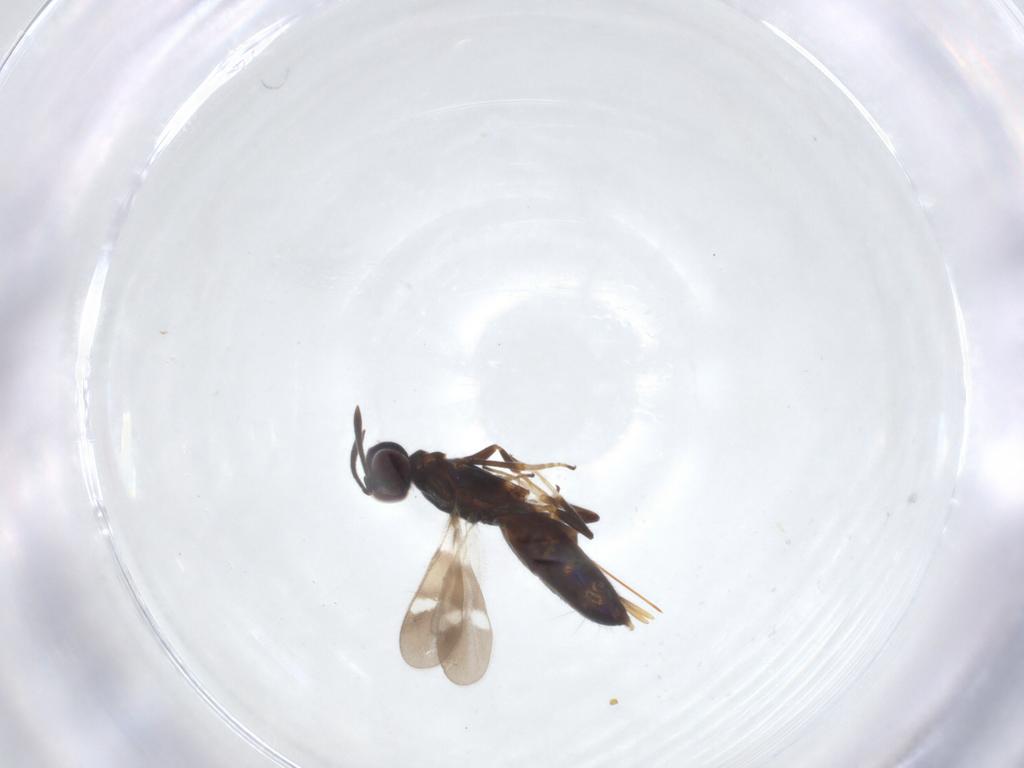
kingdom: Animalia
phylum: Arthropoda
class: Insecta
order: Hymenoptera
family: Eupelmidae
